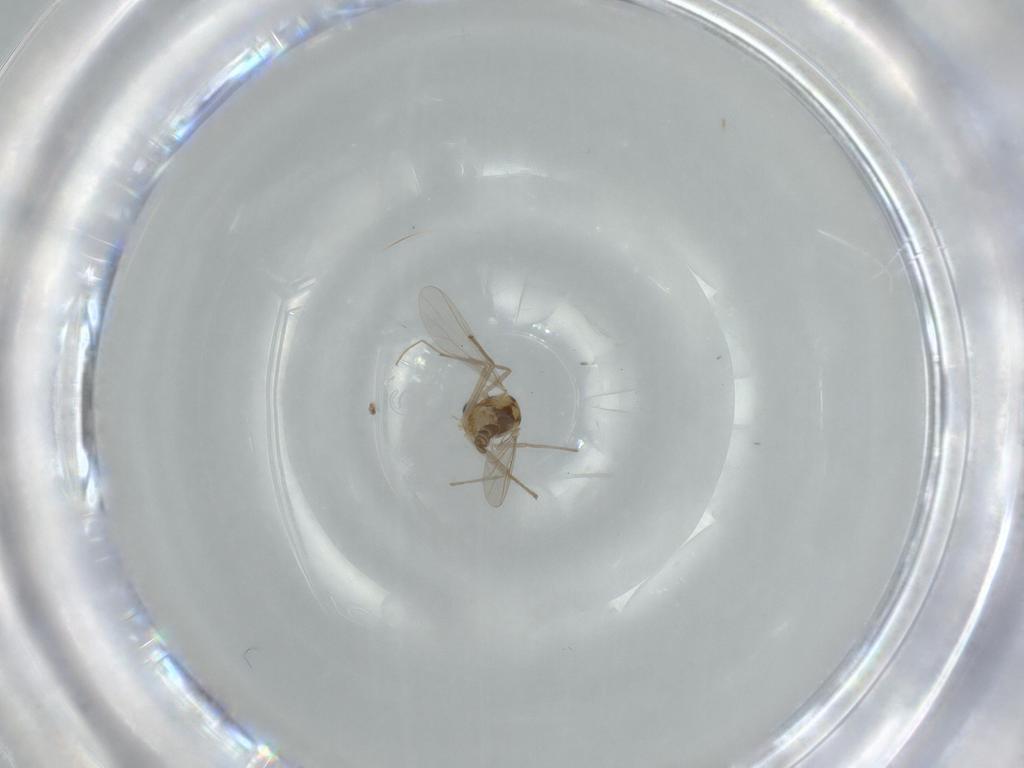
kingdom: Animalia
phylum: Arthropoda
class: Insecta
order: Diptera
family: Chironomidae
